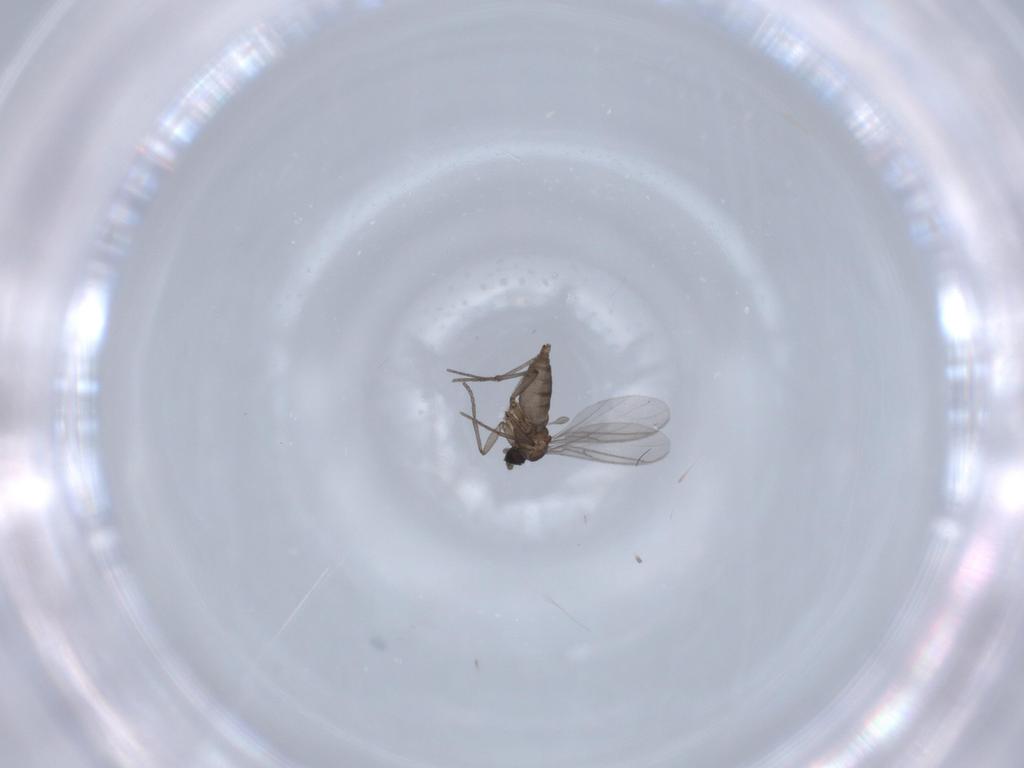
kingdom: Animalia
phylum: Arthropoda
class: Insecta
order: Diptera
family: Sciaridae
